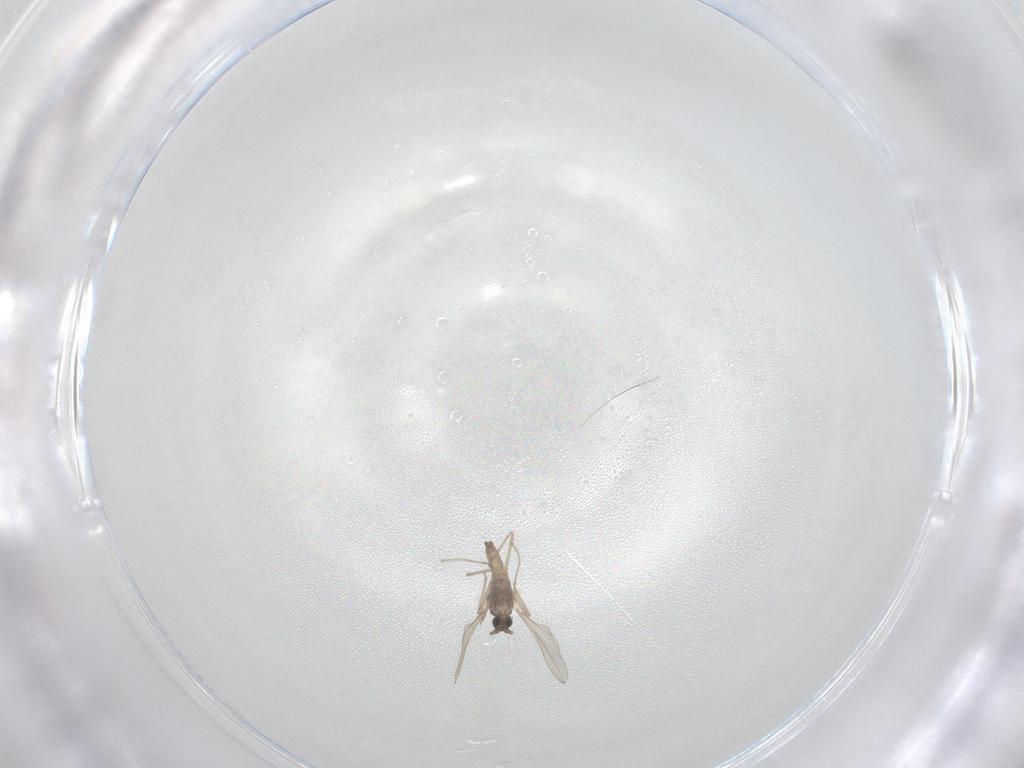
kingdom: Animalia
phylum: Arthropoda
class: Insecta
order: Diptera
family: Cecidomyiidae
